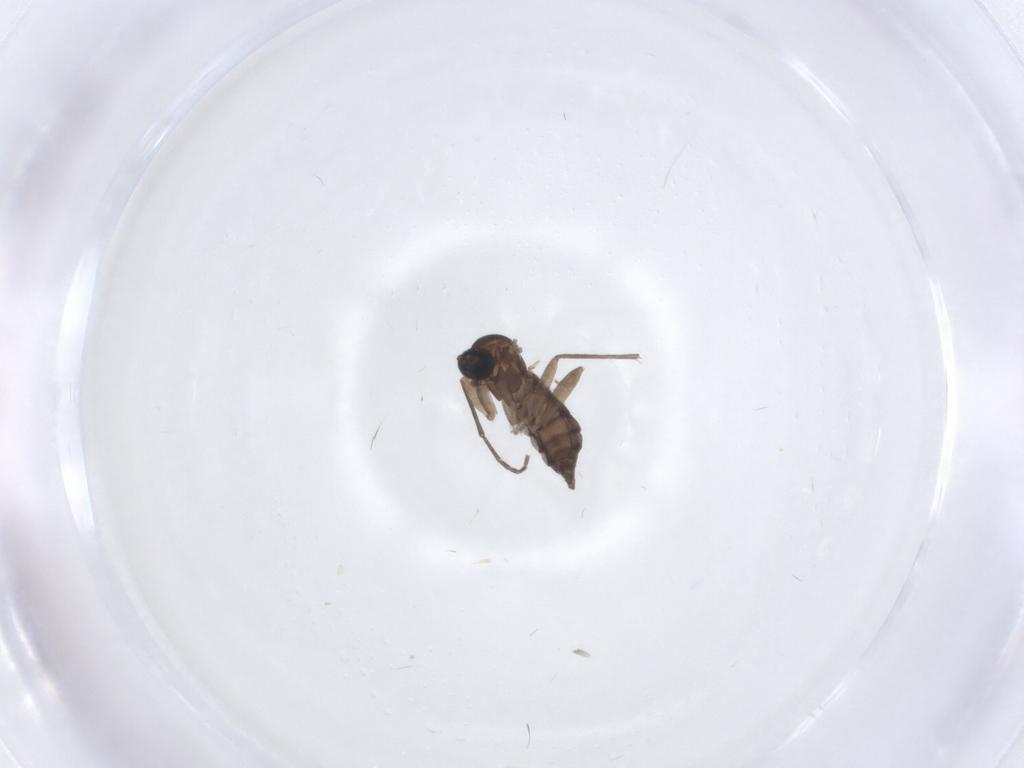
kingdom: Animalia
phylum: Arthropoda
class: Insecta
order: Diptera
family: Sciaridae
